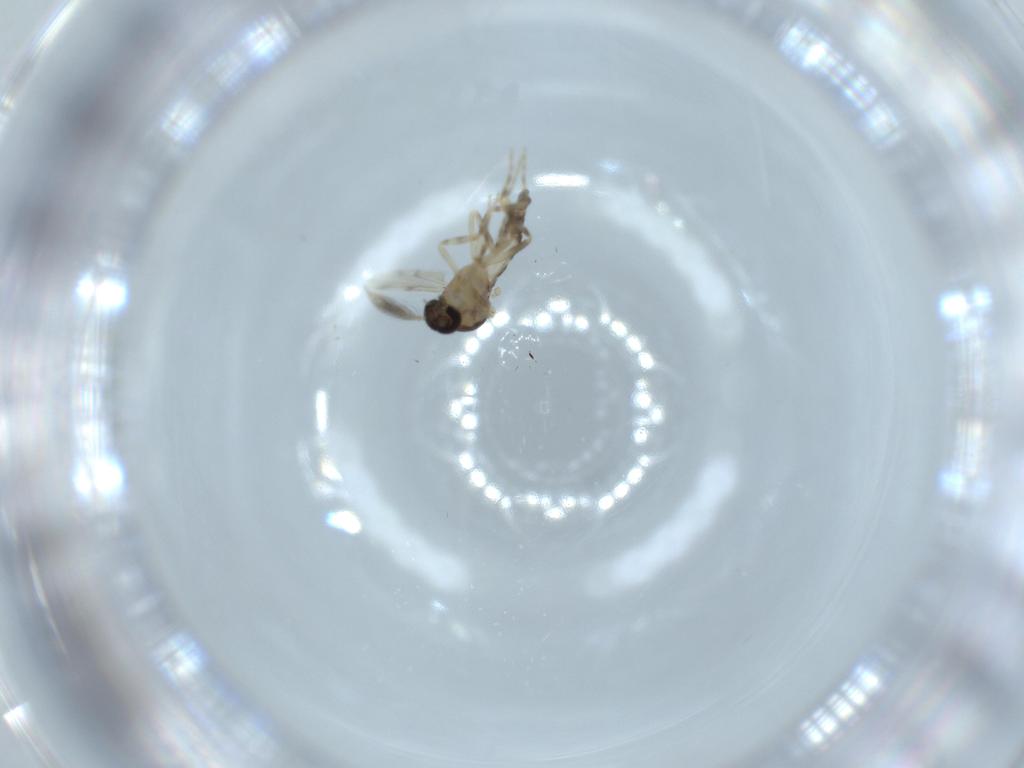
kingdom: Animalia
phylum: Arthropoda
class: Insecta
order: Diptera
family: Ceratopogonidae
